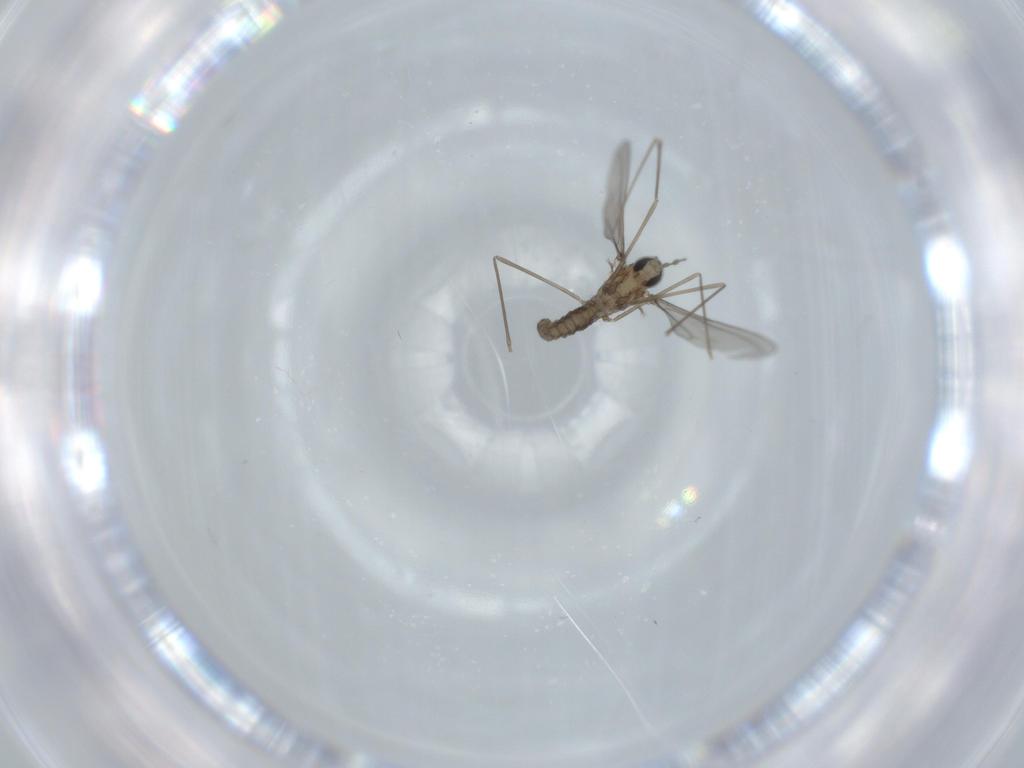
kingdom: Animalia
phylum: Arthropoda
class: Insecta
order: Diptera
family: Cecidomyiidae
